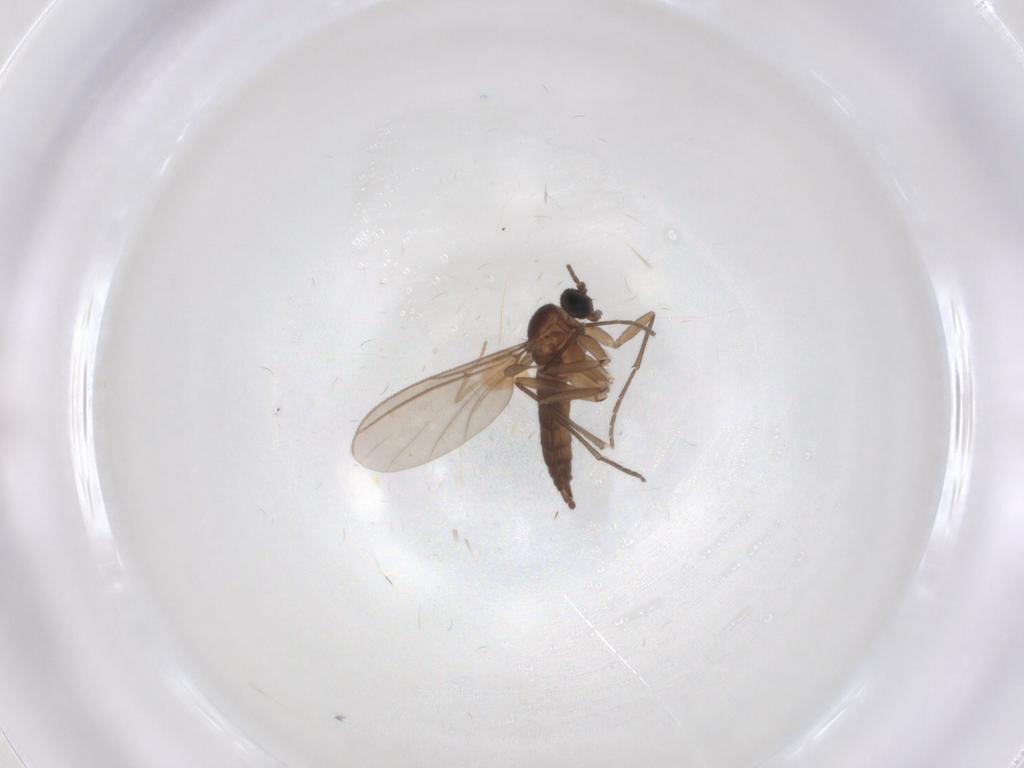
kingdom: Animalia
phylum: Arthropoda
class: Insecta
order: Diptera
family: Sciaridae
